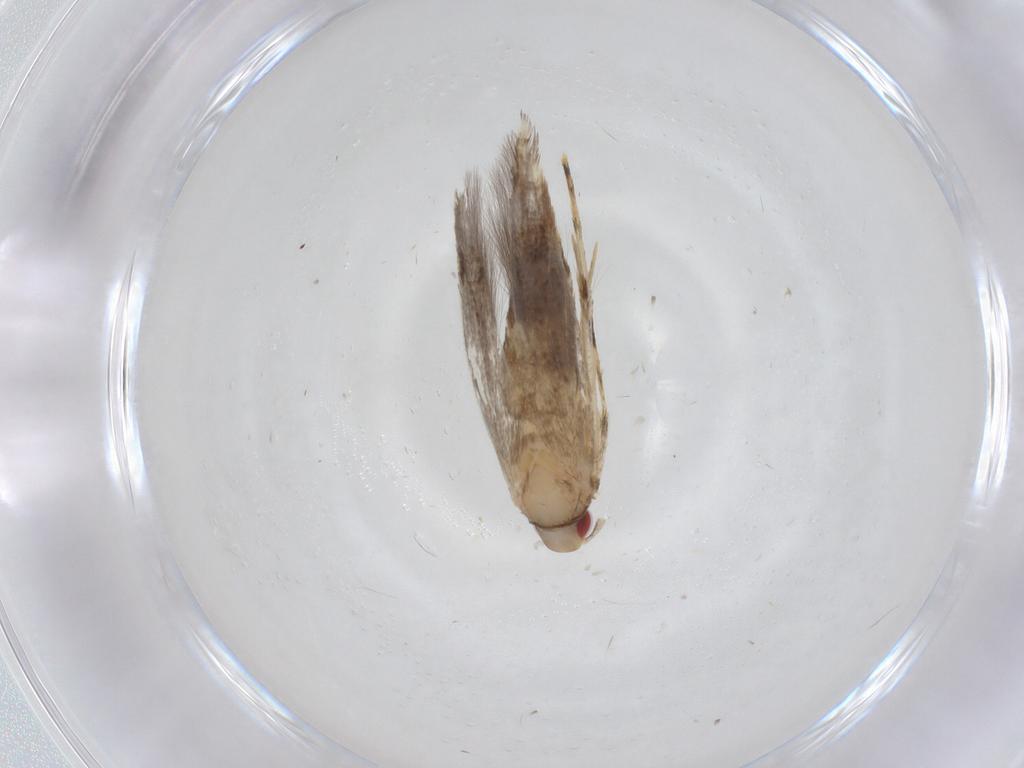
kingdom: Animalia
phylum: Arthropoda
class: Insecta
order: Lepidoptera
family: Cosmopterigidae
